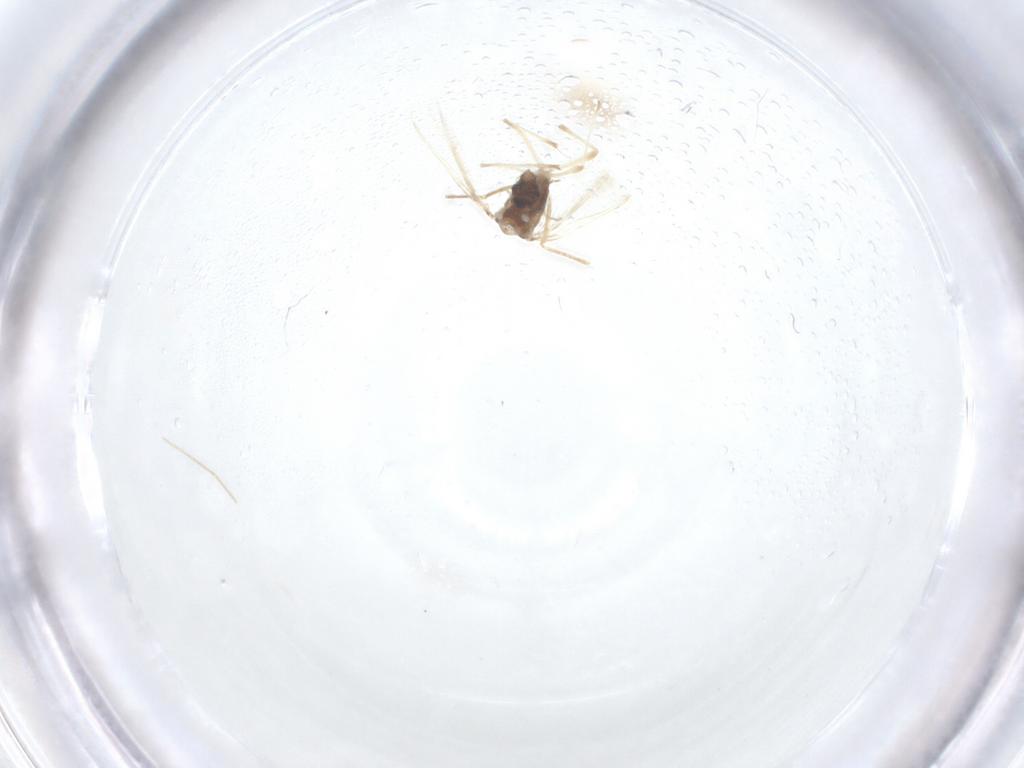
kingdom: Animalia
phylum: Arthropoda
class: Insecta
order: Diptera
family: Chironomidae
